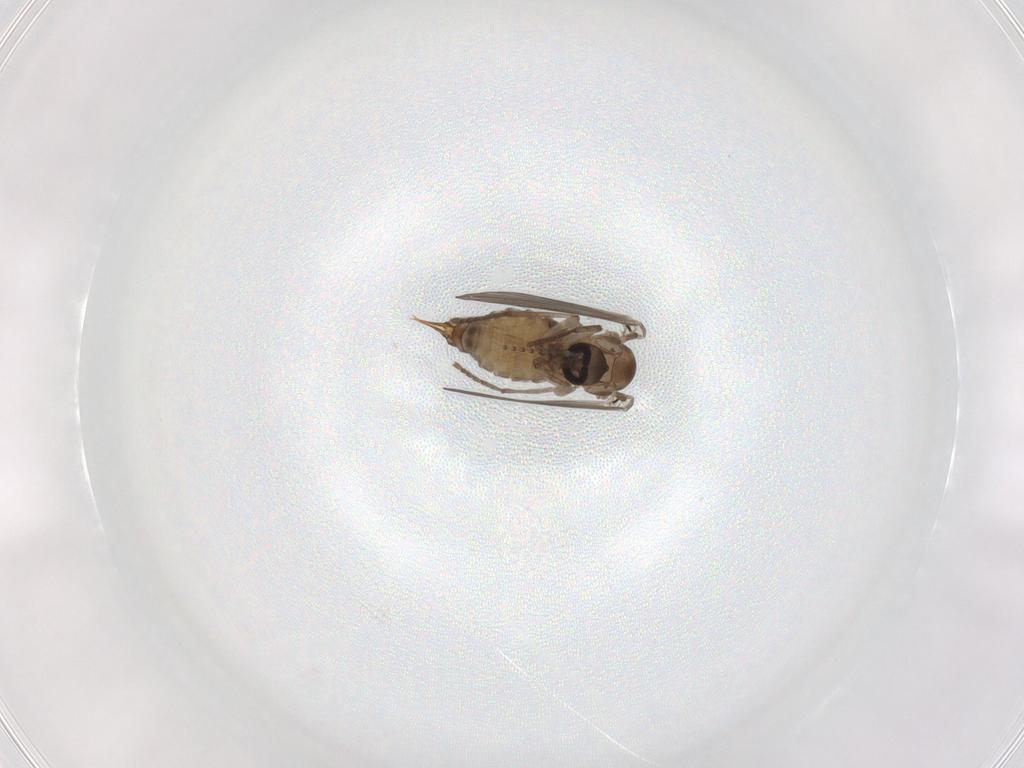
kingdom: Animalia
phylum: Arthropoda
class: Insecta
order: Diptera
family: Psychodidae
